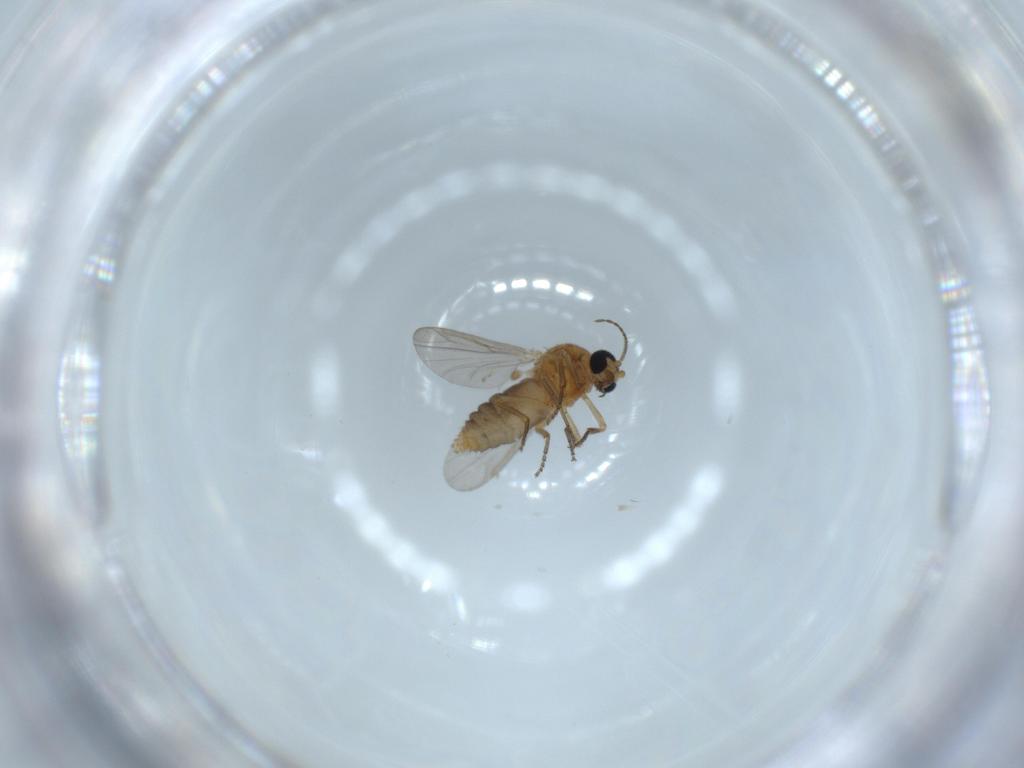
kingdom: Animalia
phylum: Arthropoda
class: Insecta
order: Diptera
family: Ceratopogonidae
